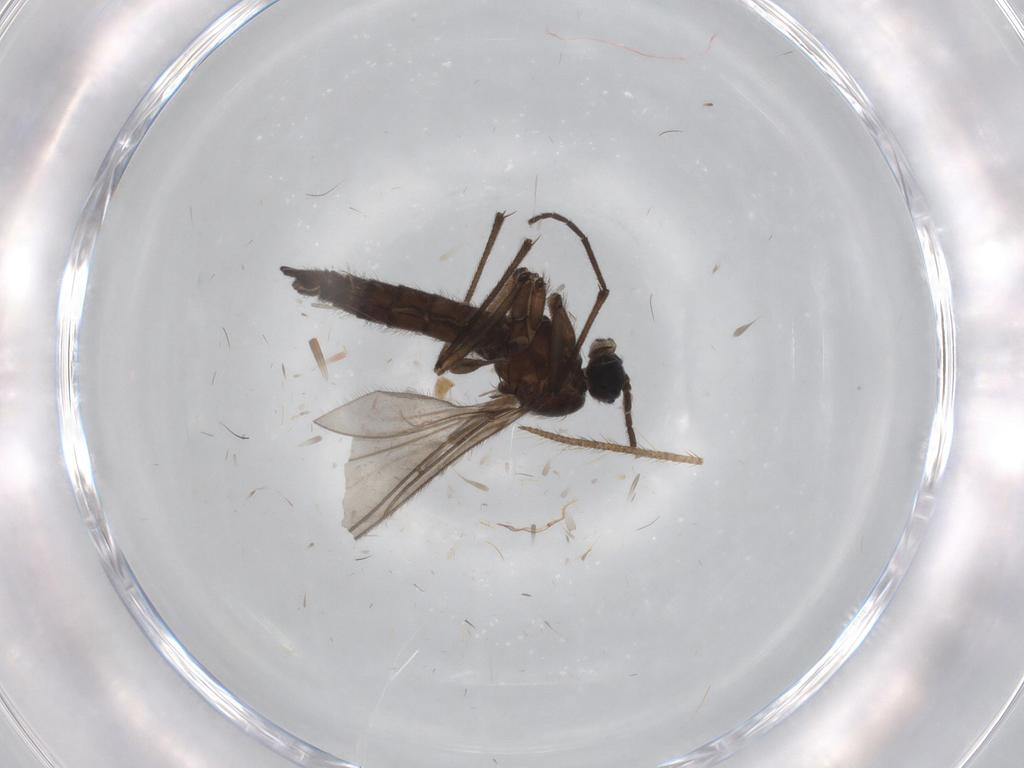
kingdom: Animalia
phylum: Arthropoda
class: Insecta
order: Diptera
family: Sciaridae
